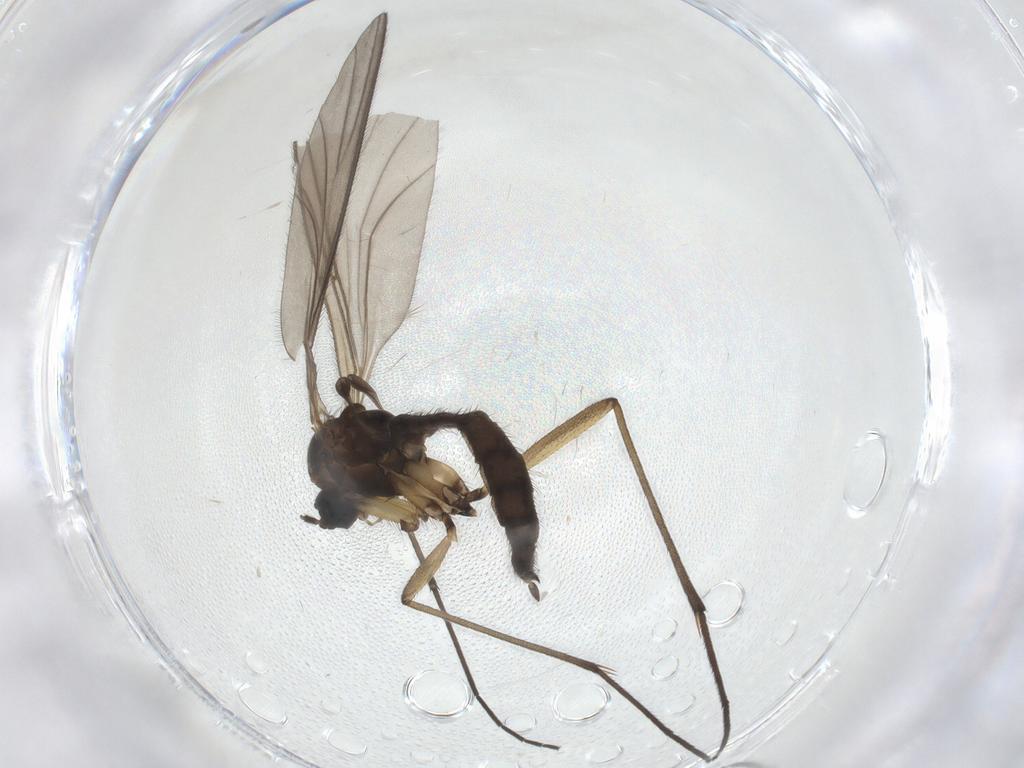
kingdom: Animalia
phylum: Arthropoda
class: Insecta
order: Diptera
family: Sciaridae
